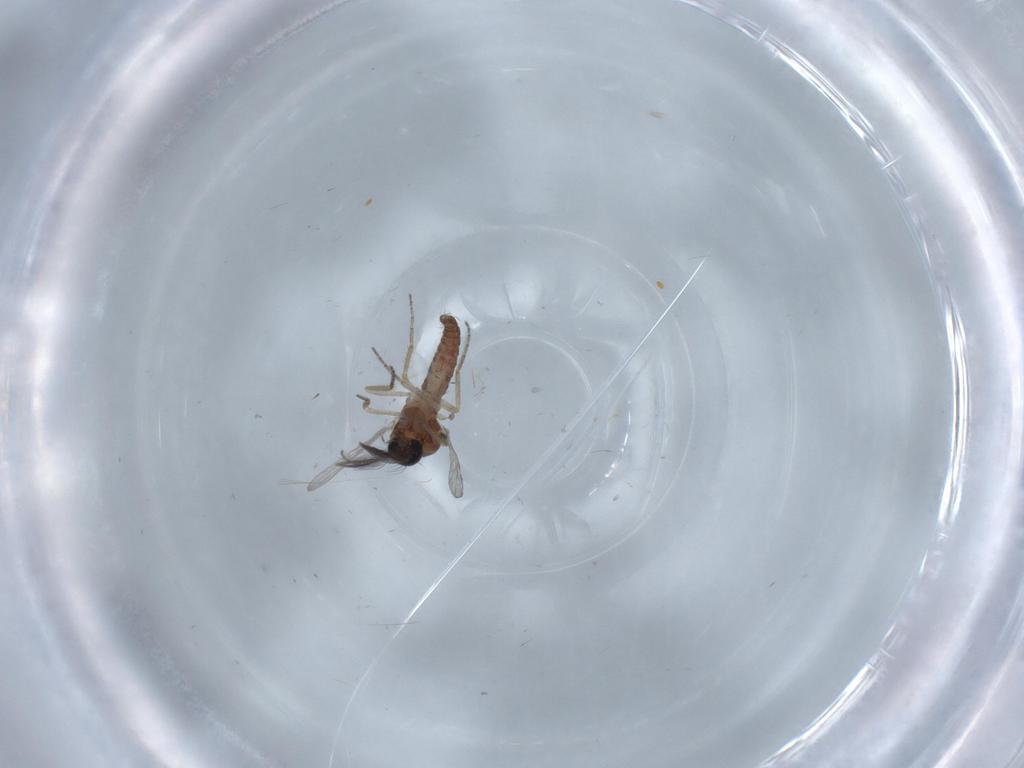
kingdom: Animalia
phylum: Arthropoda
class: Insecta
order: Diptera
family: Ceratopogonidae
